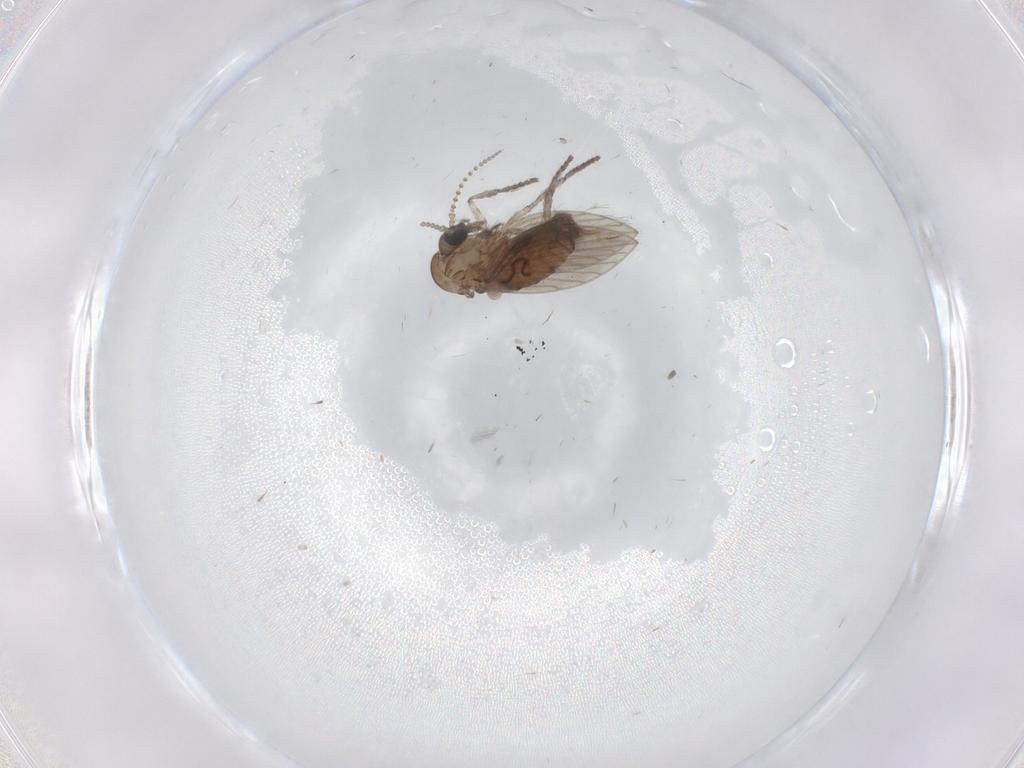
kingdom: Animalia
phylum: Arthropoda
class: Insecta
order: Diptera
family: Psychodidae
